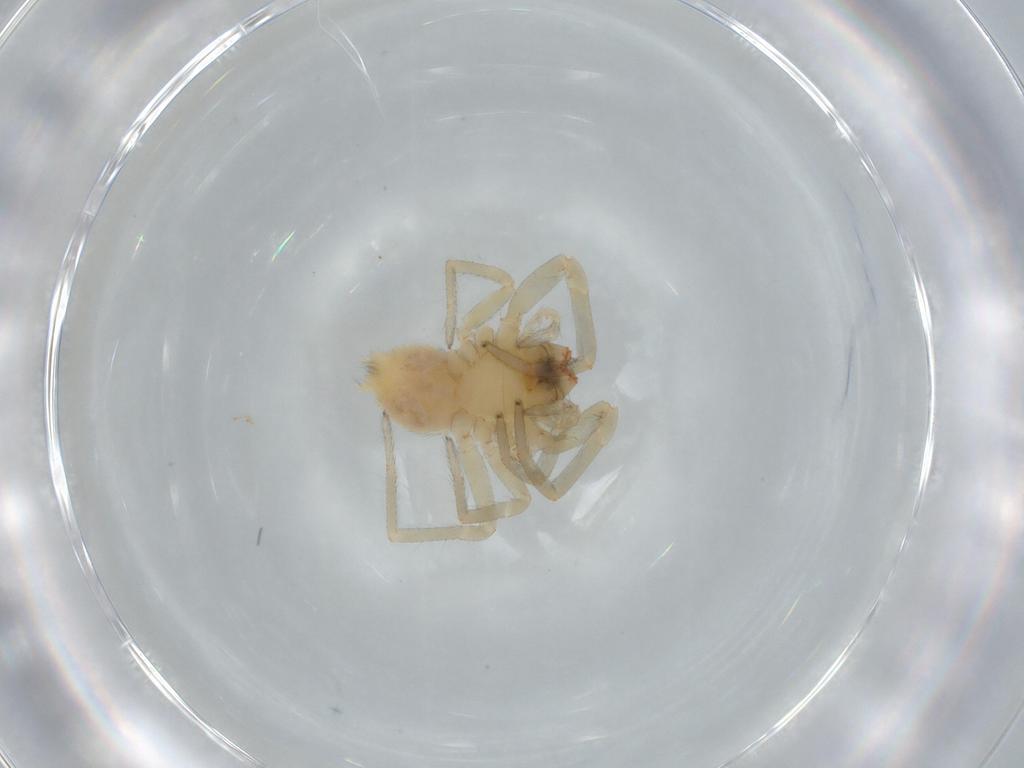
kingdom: Animalia
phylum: Arthropoda
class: Arachnida
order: Araneae
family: Cheiracanthiidae
